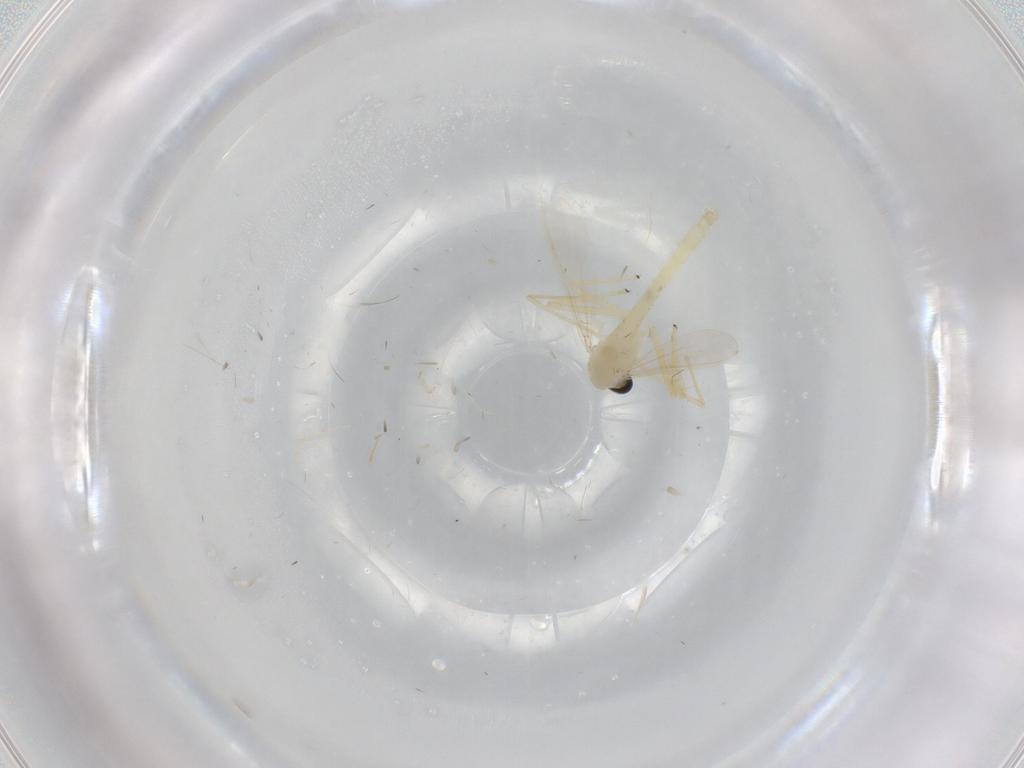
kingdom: Animalia
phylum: Arthropoda
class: Insecta
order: Diptera
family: Chironomidae
